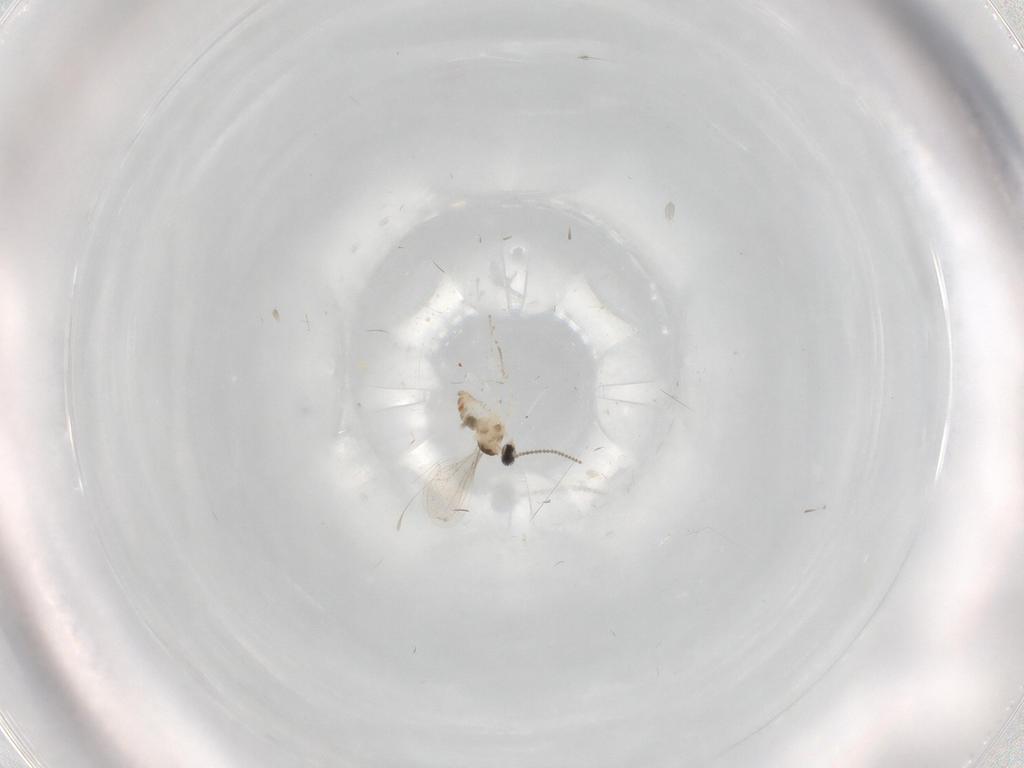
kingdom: Animalia
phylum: Arthropoda
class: Insecta
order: Diptera
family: Cecidomyiidae
